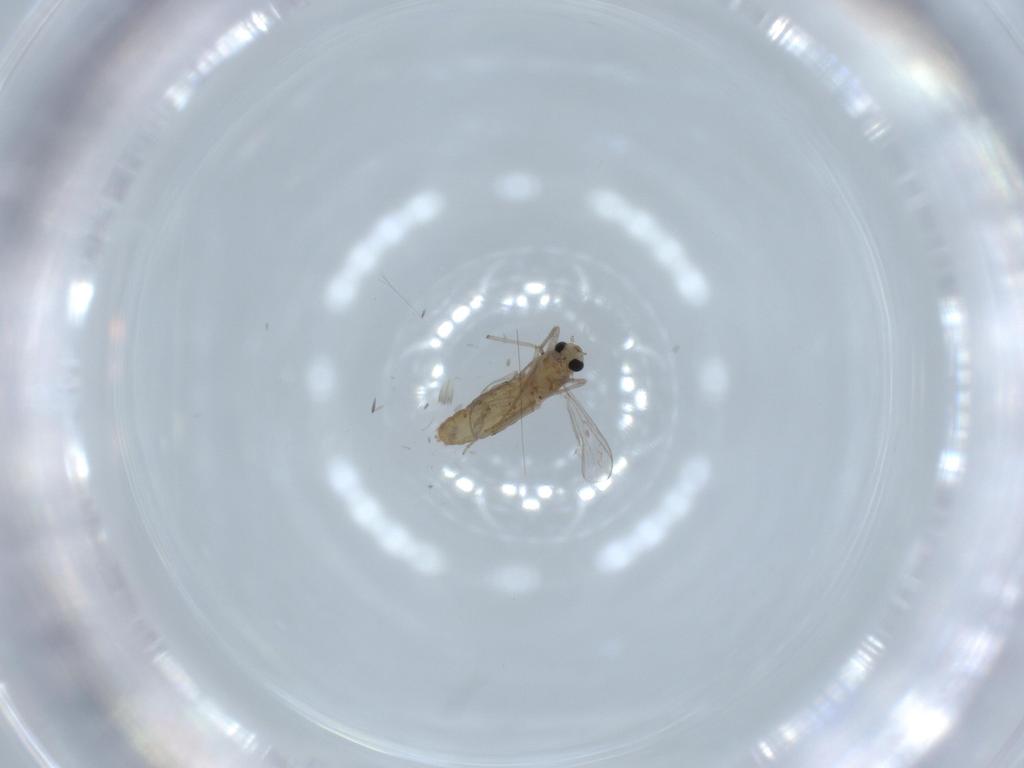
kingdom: Animalia
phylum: Arthropoda
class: Insecta
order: Diptera
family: Chironomidae
